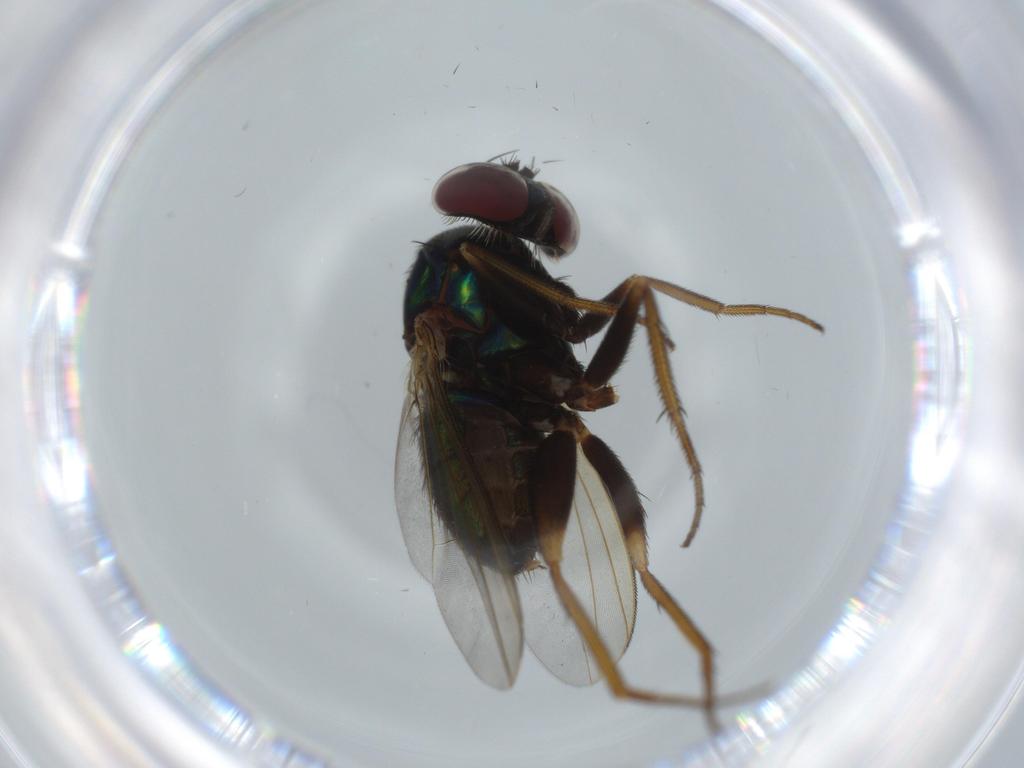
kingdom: Animalia
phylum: Arthropoda
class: Insecta
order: Diptera
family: Dolichopodidae
